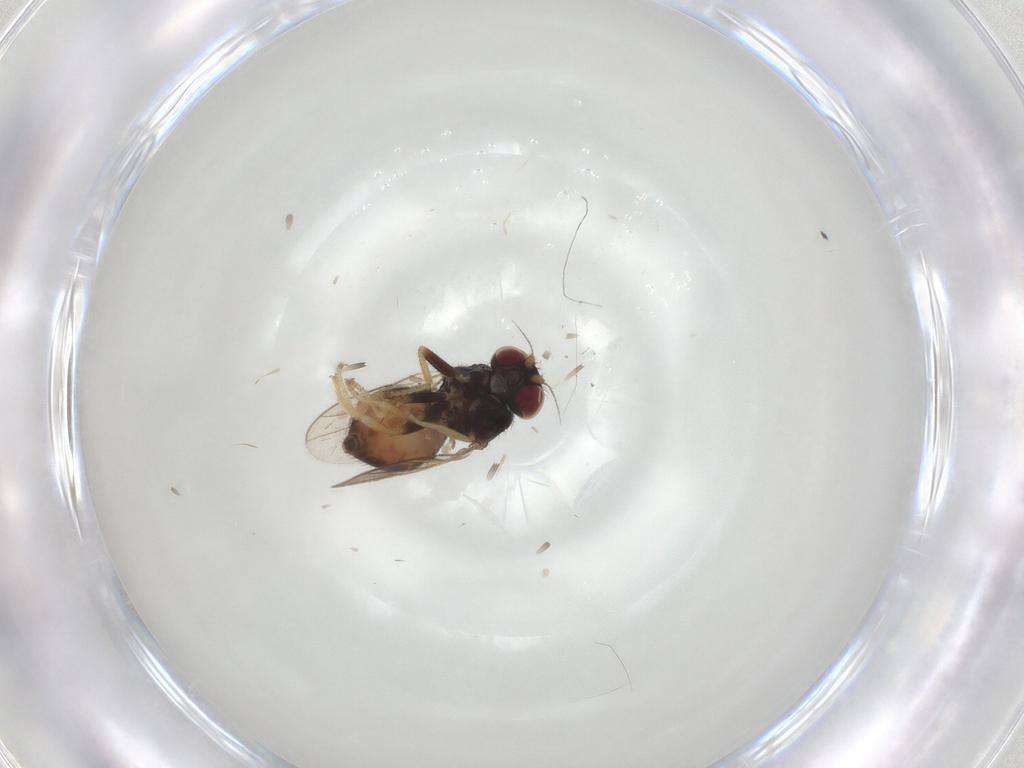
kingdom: Animalia
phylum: Arthropoda
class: Insecta
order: Diptera
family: Chloropidae
